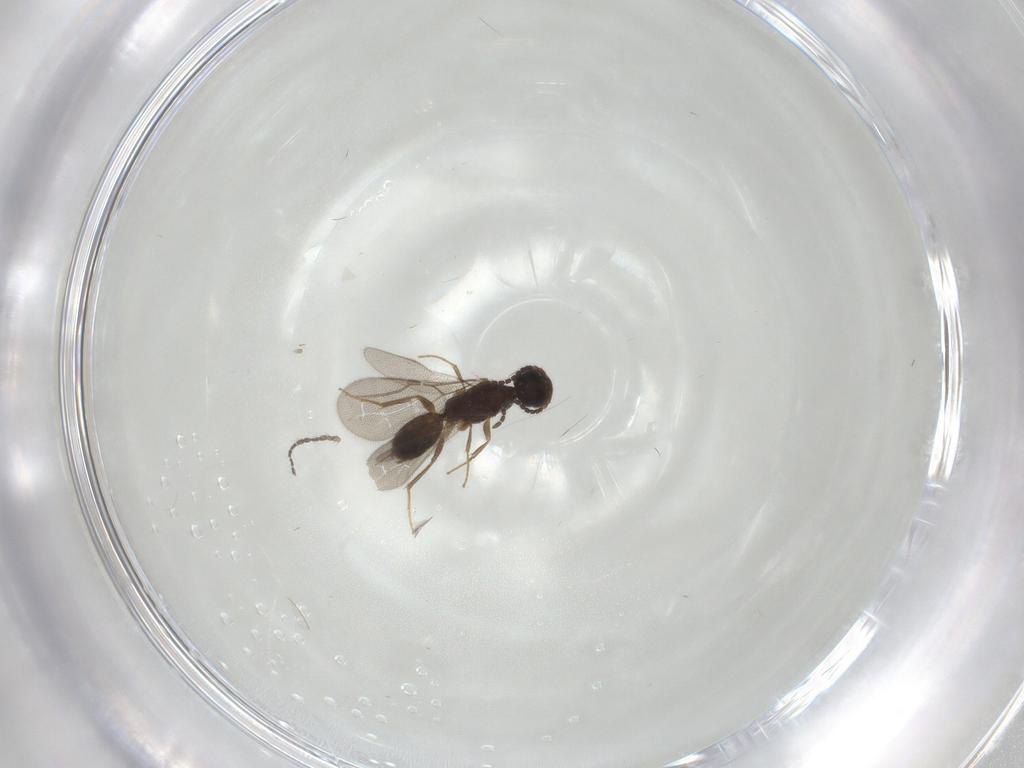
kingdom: Animalia
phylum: Arthropoda
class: Insecta
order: Hymenoptera
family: Bethylidae
